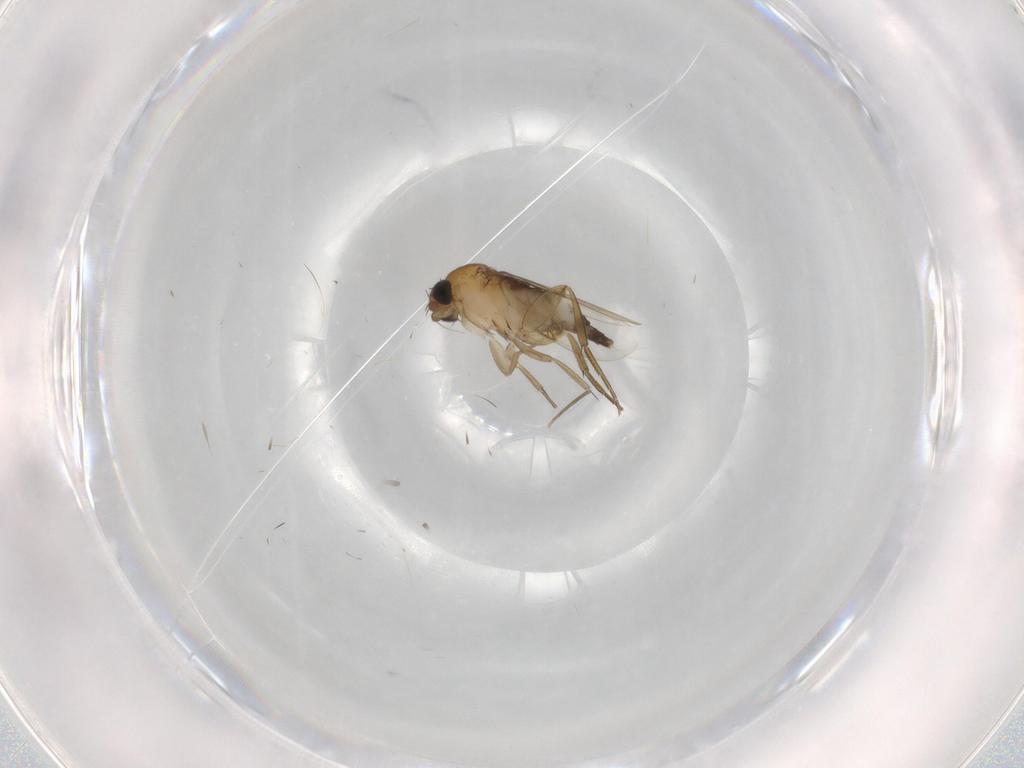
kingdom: Animalia
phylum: Arthropoda
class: Insecta
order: Diptera
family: Phoridae
